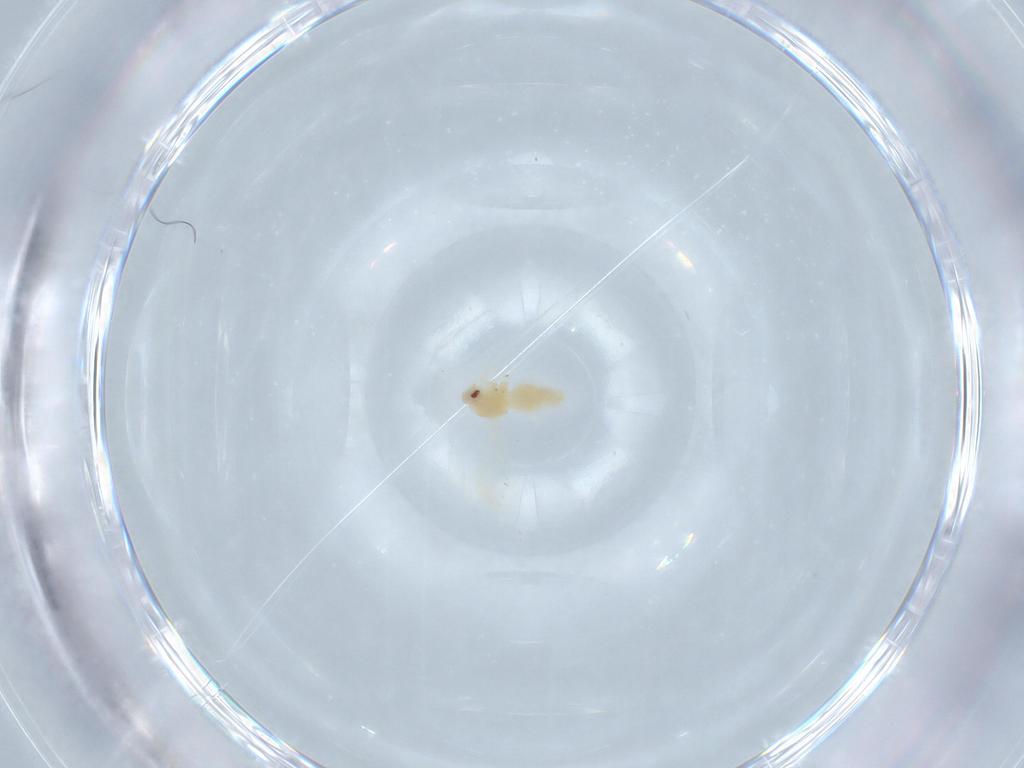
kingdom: Animalia
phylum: Arthropoda
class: Insecta
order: Hemiptera
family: Aleyrodidae
